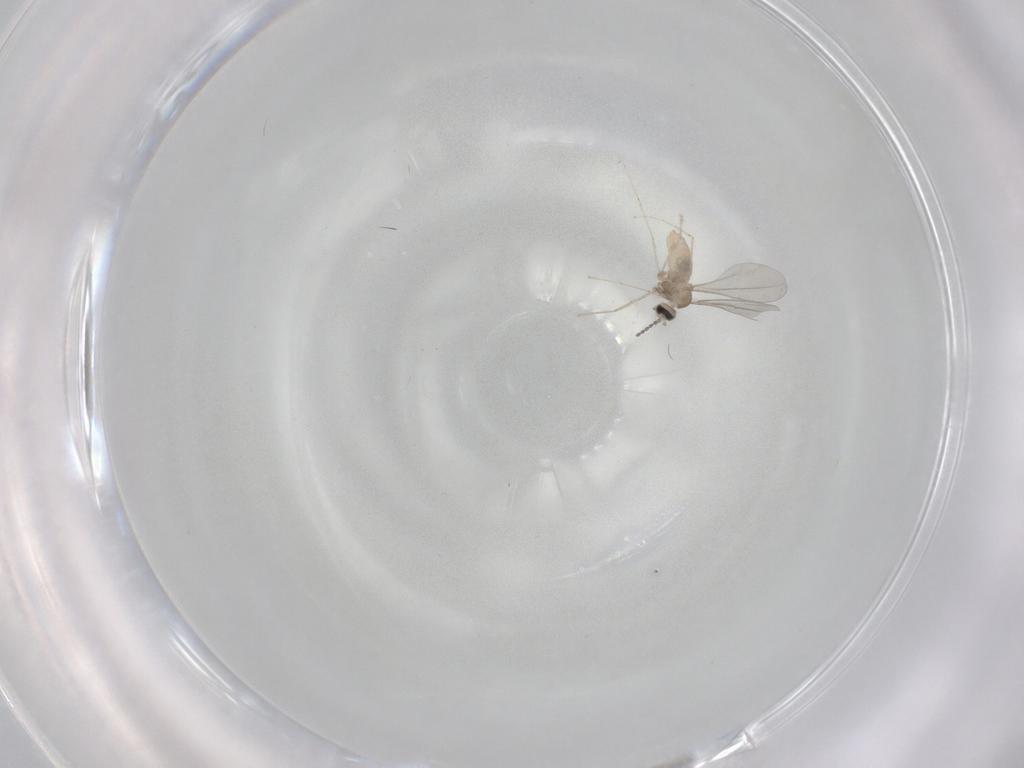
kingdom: Animalia
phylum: Arthropoda
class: Insecta
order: Diptera
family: Cecidomyiidae
